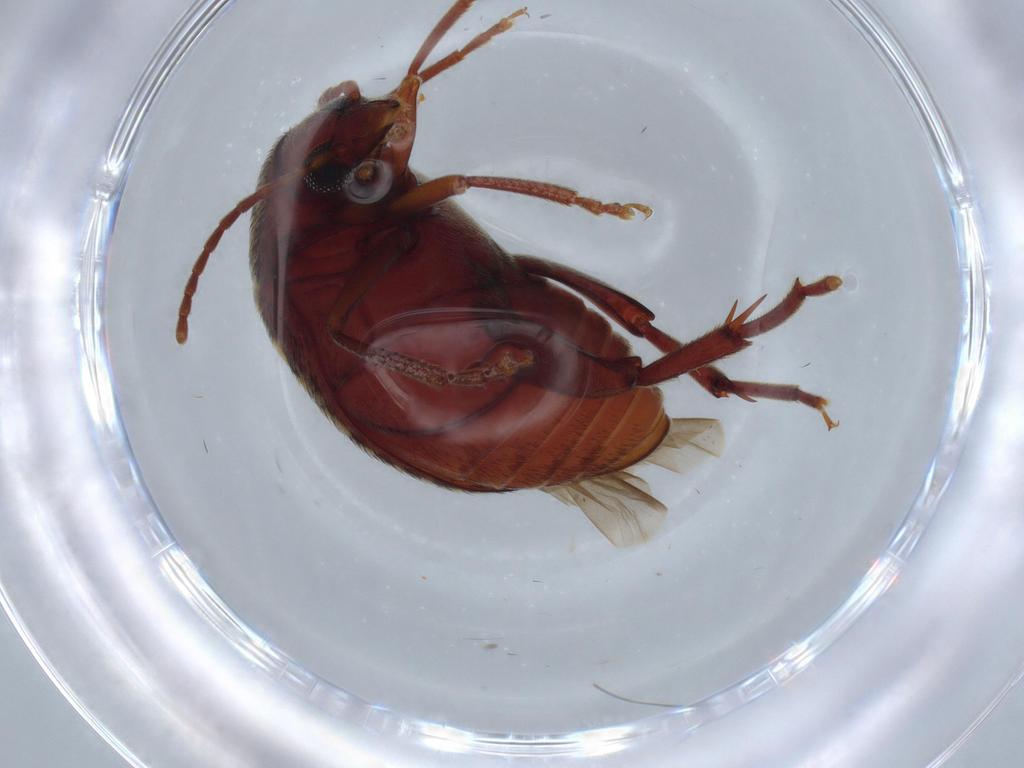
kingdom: Animalia
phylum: Arthropoda
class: Insecta
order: Coleoptera
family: Chrysomelidae
